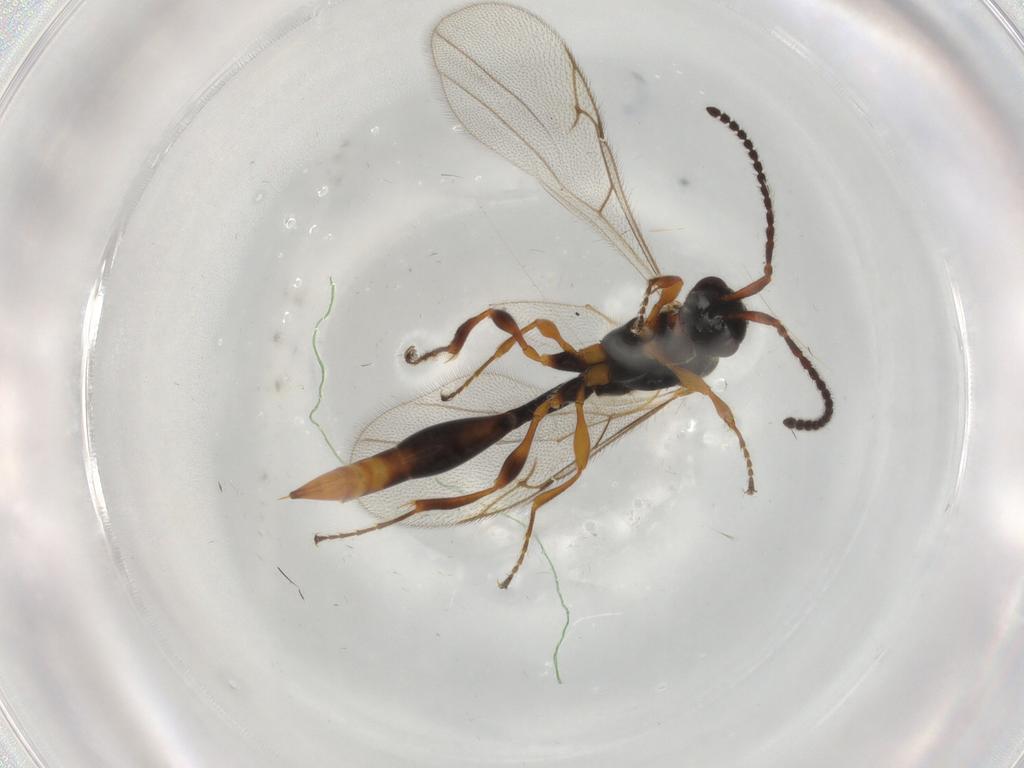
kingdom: Animalia
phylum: Arthropoda
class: Insecta
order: Hymenoptera
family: Diapriidae
